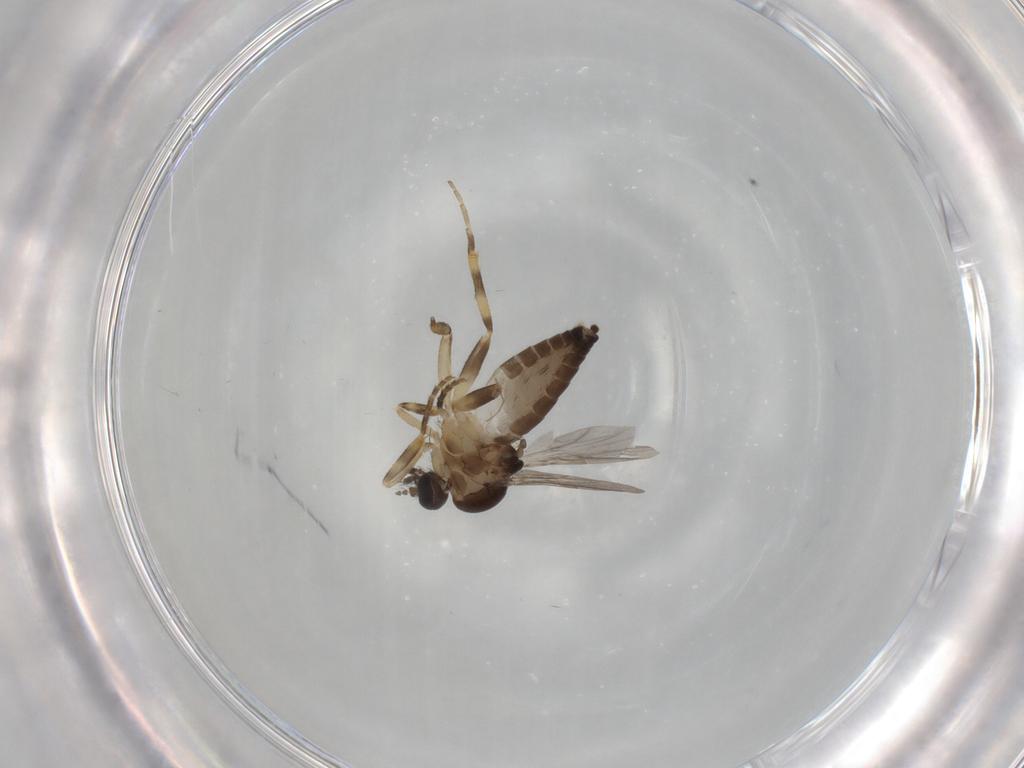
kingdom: Animalia
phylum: Arthropoda
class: Insecta
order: Diptera
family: Ceratopogonidae
